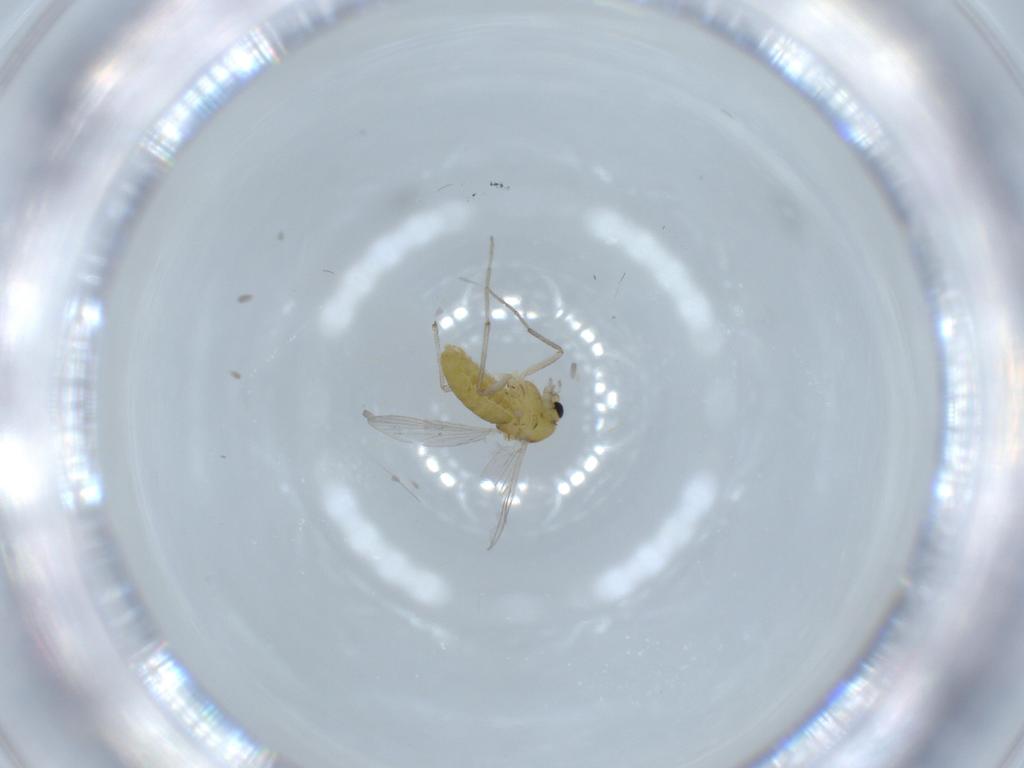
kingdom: Animalia
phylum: Arthropoda
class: Insecta
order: Diptera
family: Chironomidae
